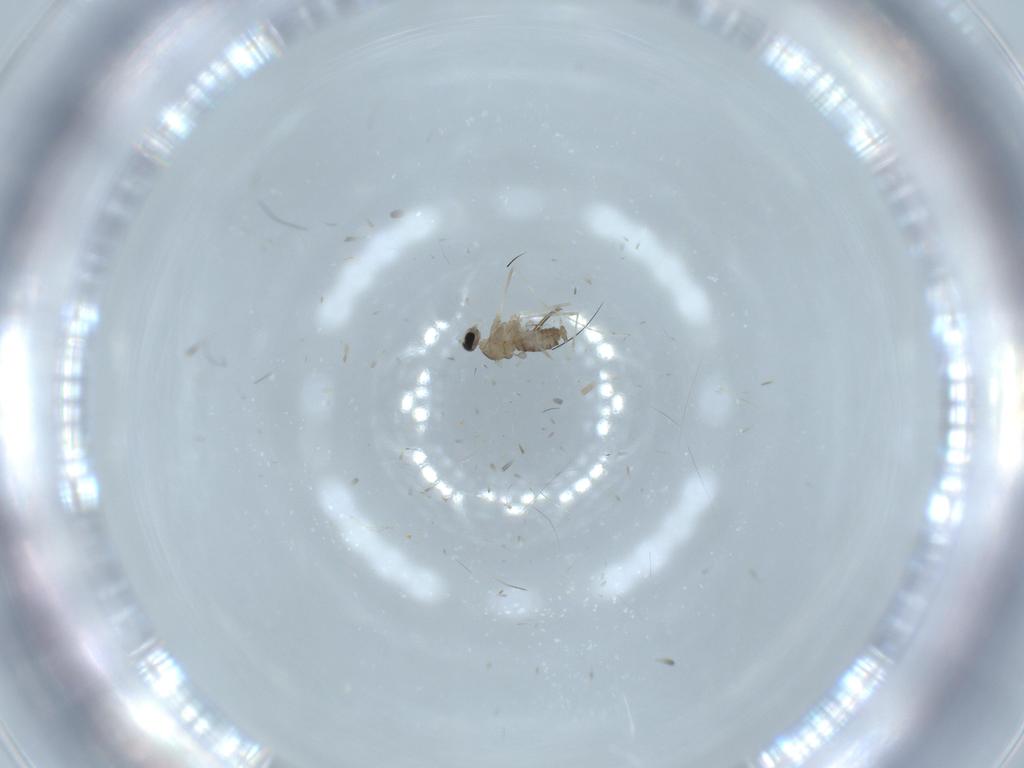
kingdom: Animalia
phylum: Arthropoda
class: Insecta
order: Diptera
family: Cecidomyiidae
